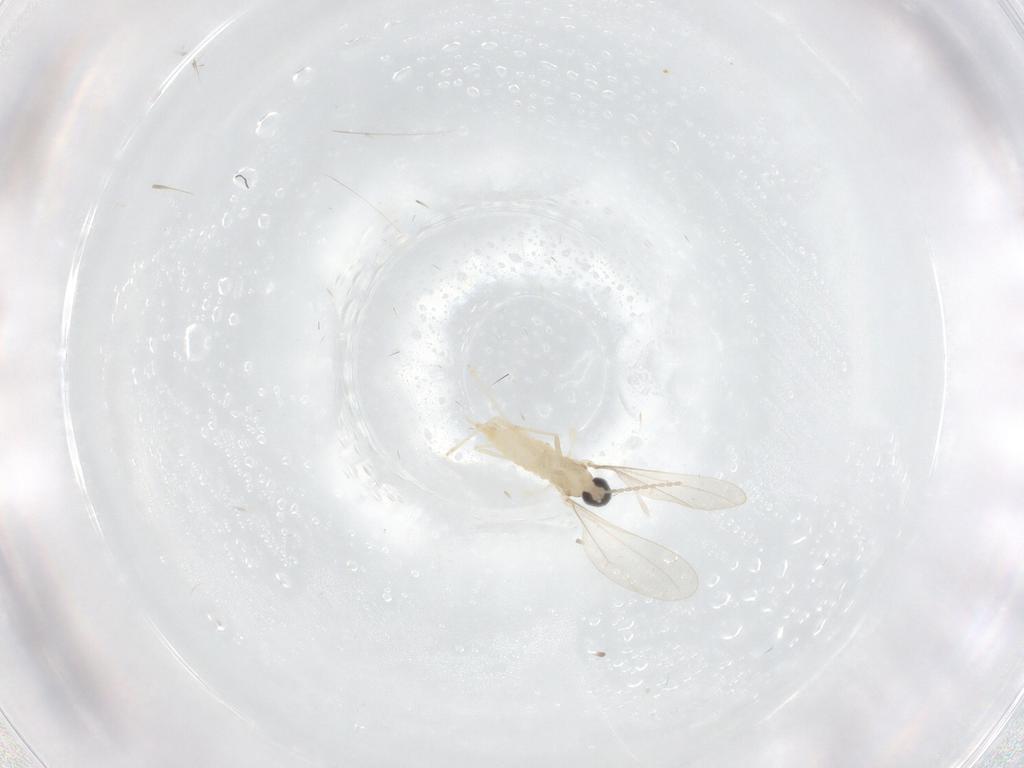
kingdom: Animalia
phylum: Arthropoda
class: Insecta
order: Diptera
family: Cecidomyiidae
